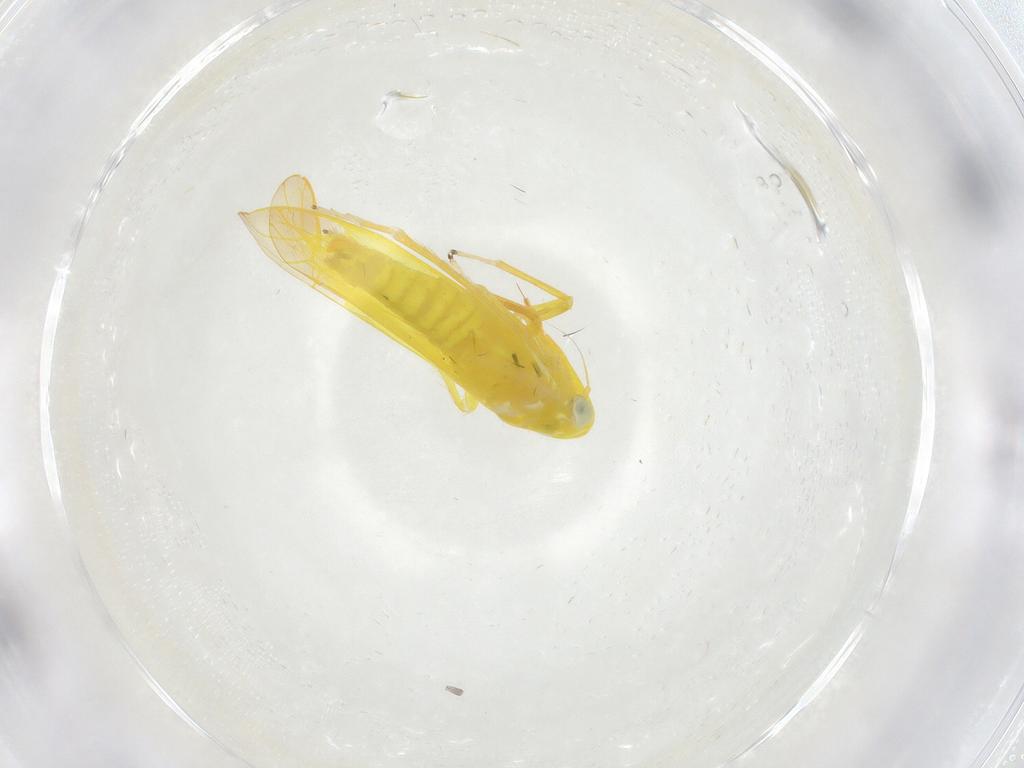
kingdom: Animalia
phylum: Arthropoda
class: Insecta
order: Hemiptera
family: Cicadellidae
